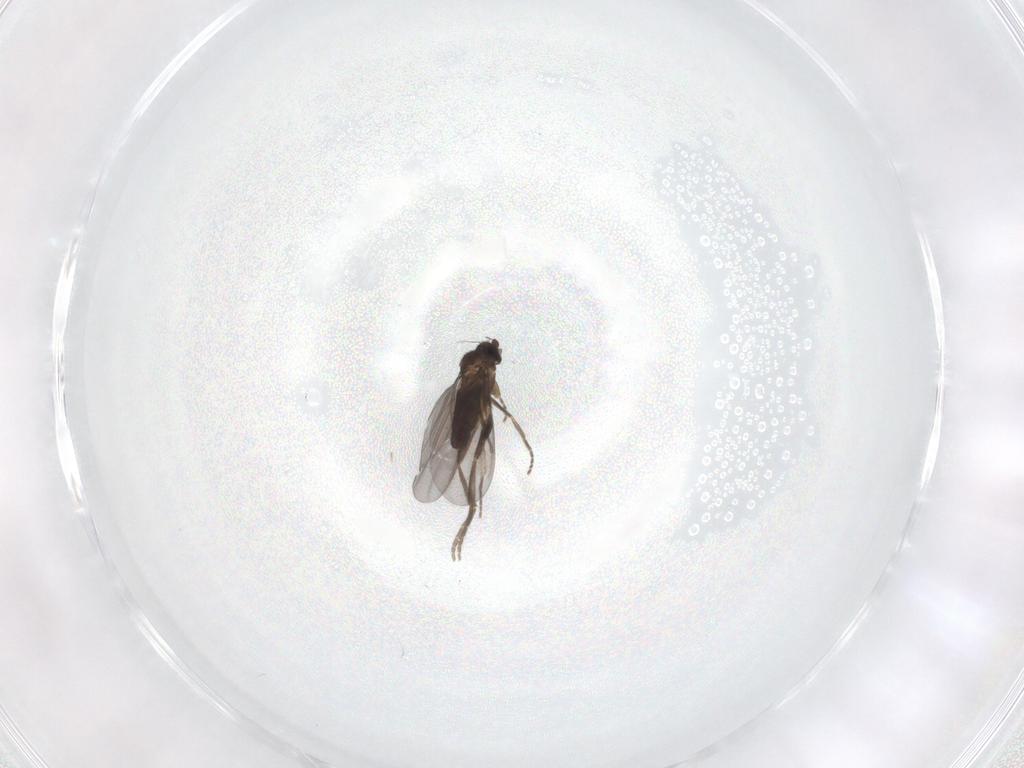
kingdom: Animalia
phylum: Arthropoda
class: Insecta
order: Diptera
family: Phoridae
